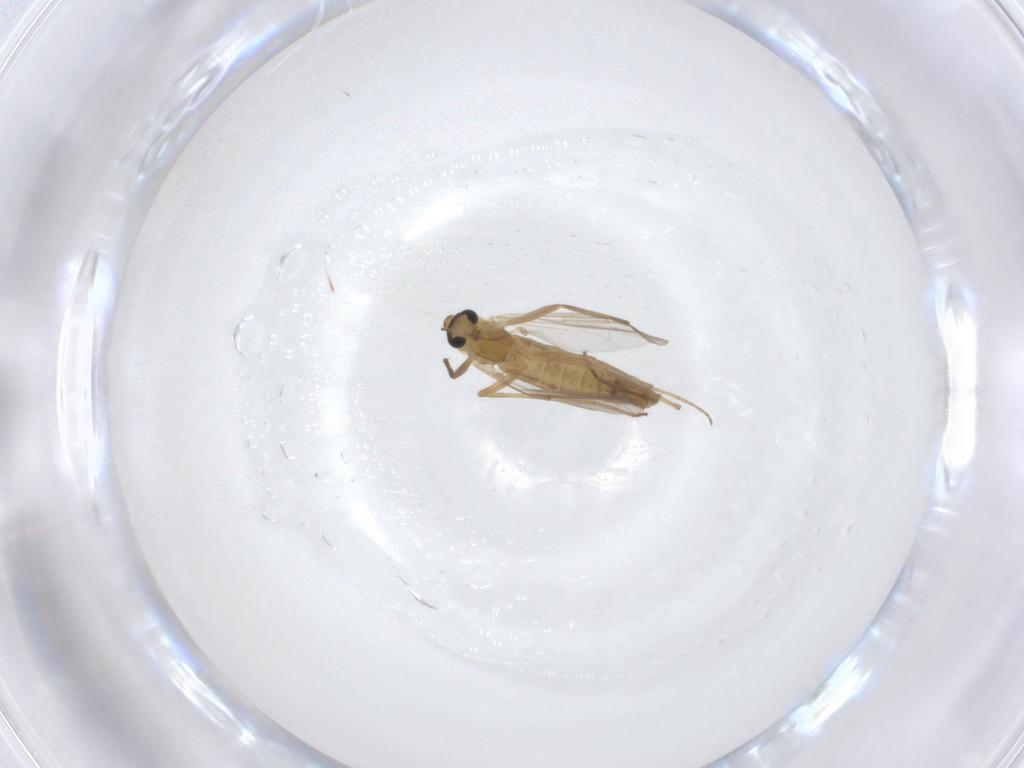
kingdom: Animalia
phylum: Arthropoda
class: Insecta
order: Diptera
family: Chironomidae
